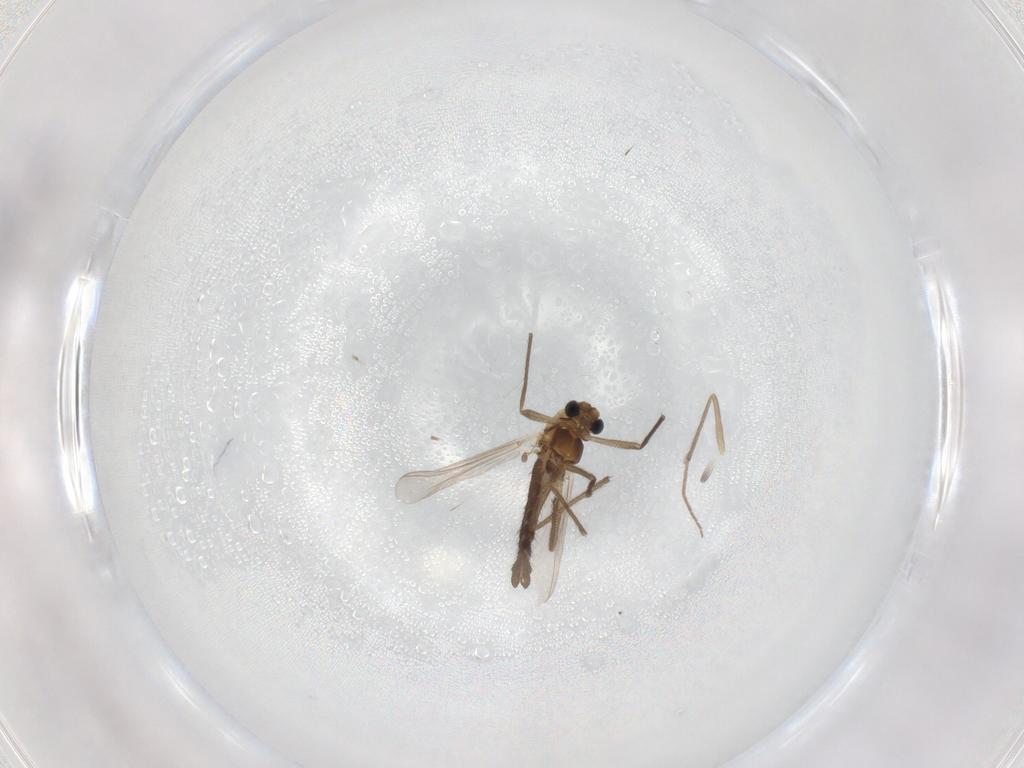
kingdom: Animalia
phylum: Arthropoda
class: Insecta
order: Diptera
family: Chironomidae
